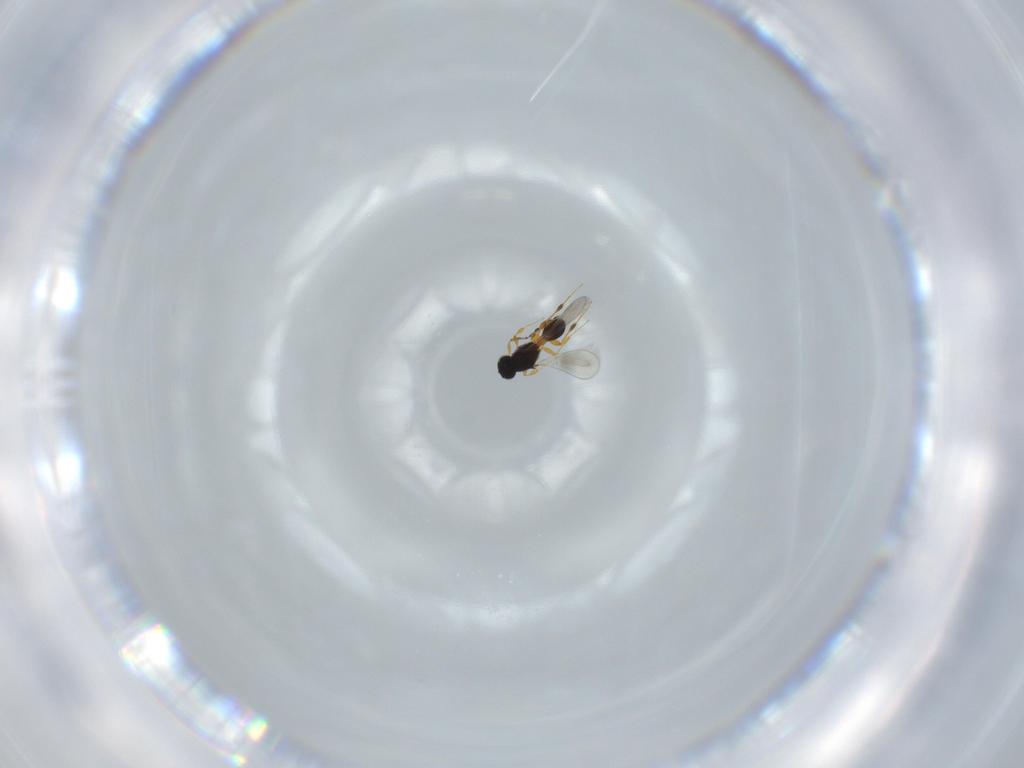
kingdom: Animalia
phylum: Arthropoda
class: Insecta
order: Hymenoptera
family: Platygastridae
